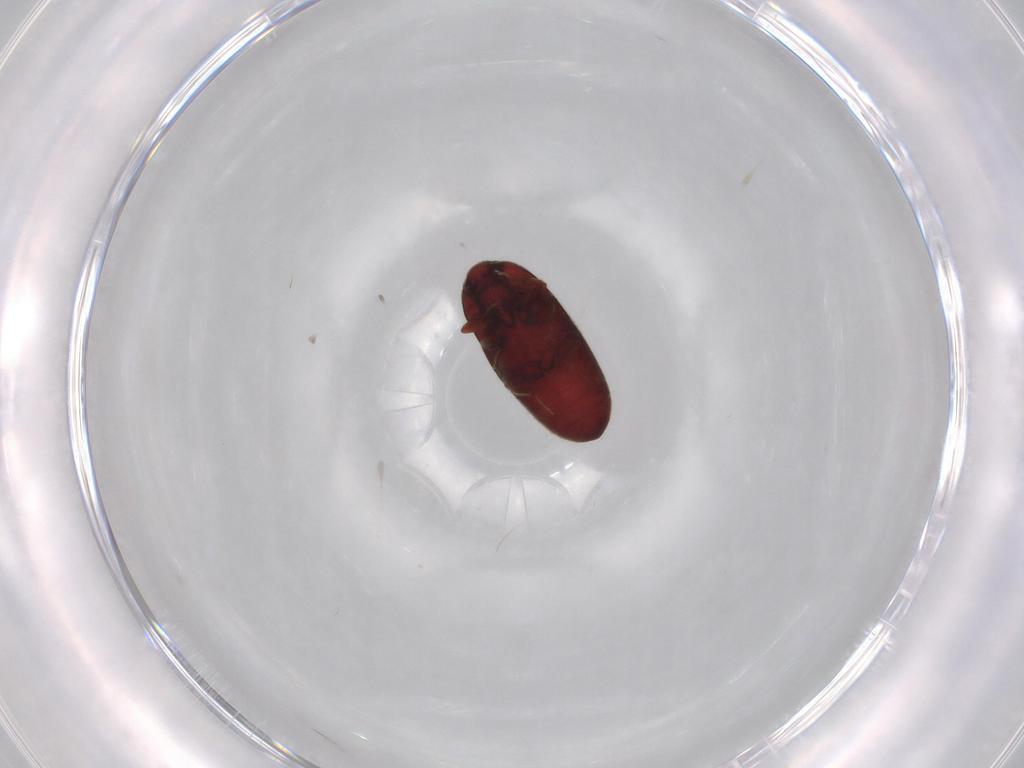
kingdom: Animalia
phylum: Arthropoda
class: Insecta
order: Coleoptera
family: Throscidae
